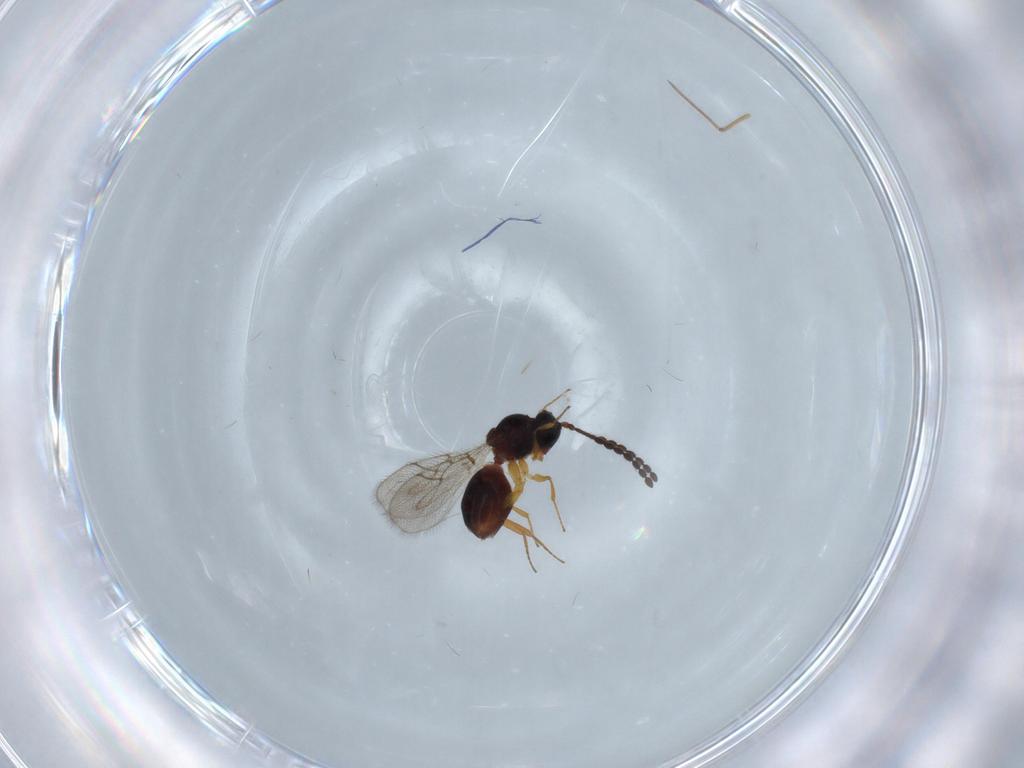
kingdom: Animalia
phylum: Arthropoda
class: Insecta
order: Hymenoptera
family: Figitidae
